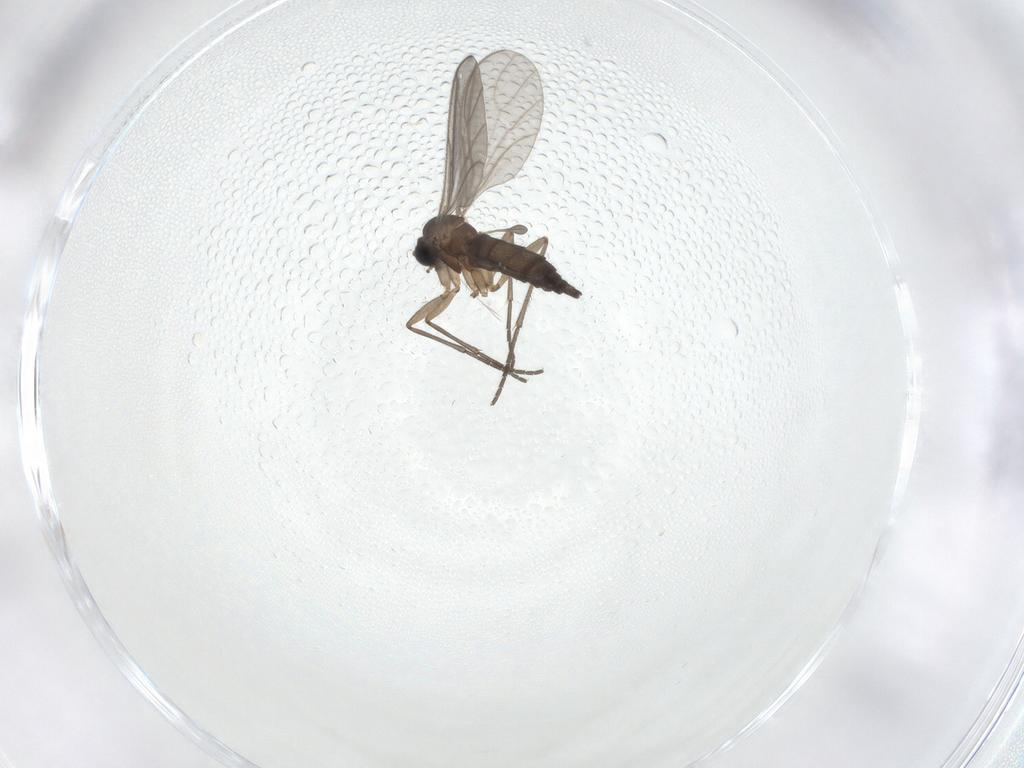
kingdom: Animalia
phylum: Arthropoda
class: Insecta
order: Diptera
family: Sciaridae
